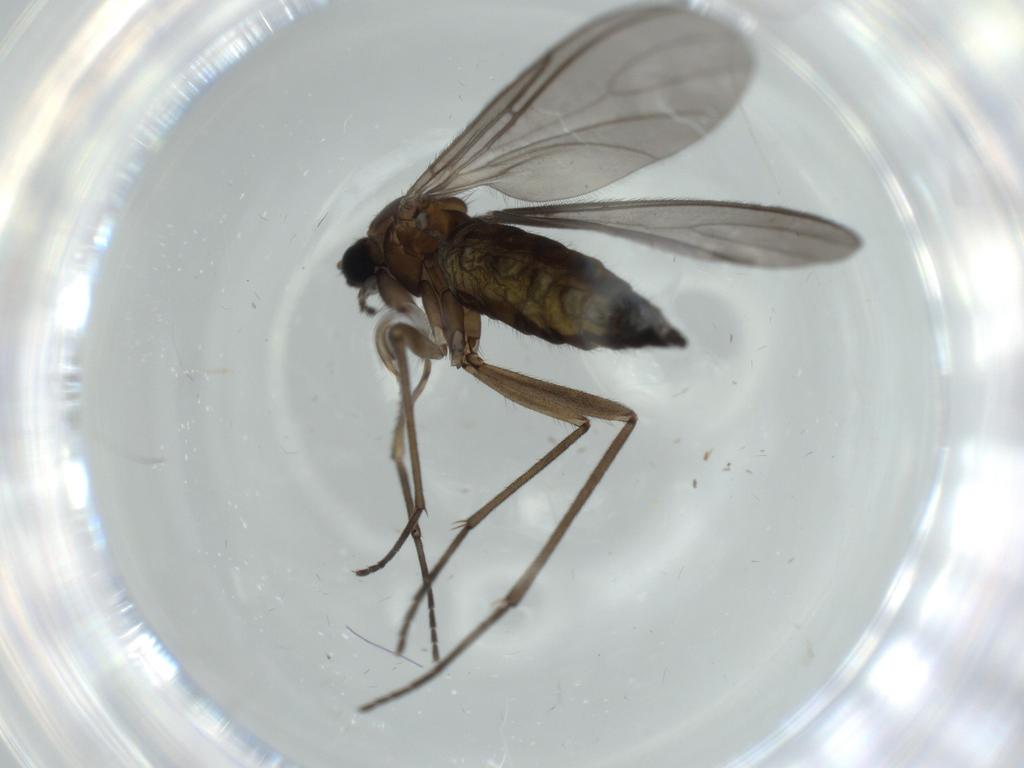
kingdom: Animalia
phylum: Arthropoda
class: Insecta
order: Diptera
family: Sciaridae
